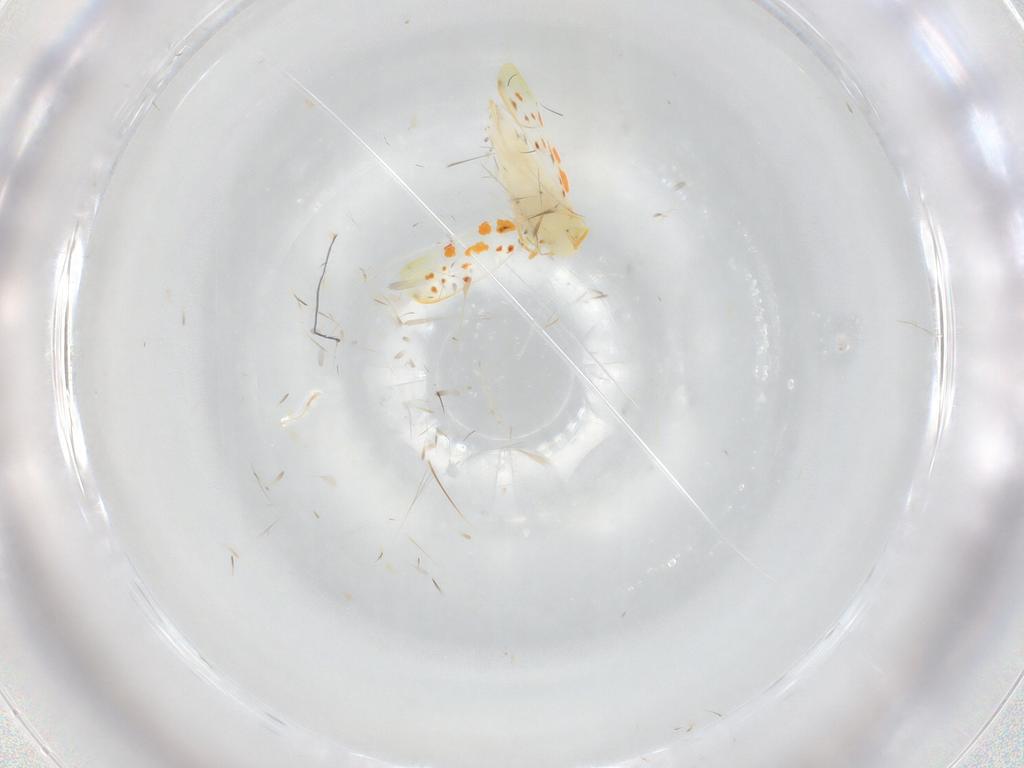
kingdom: Animalia
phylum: Arthropoda
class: Insecta
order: Hemiptera
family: Cicadellidae
